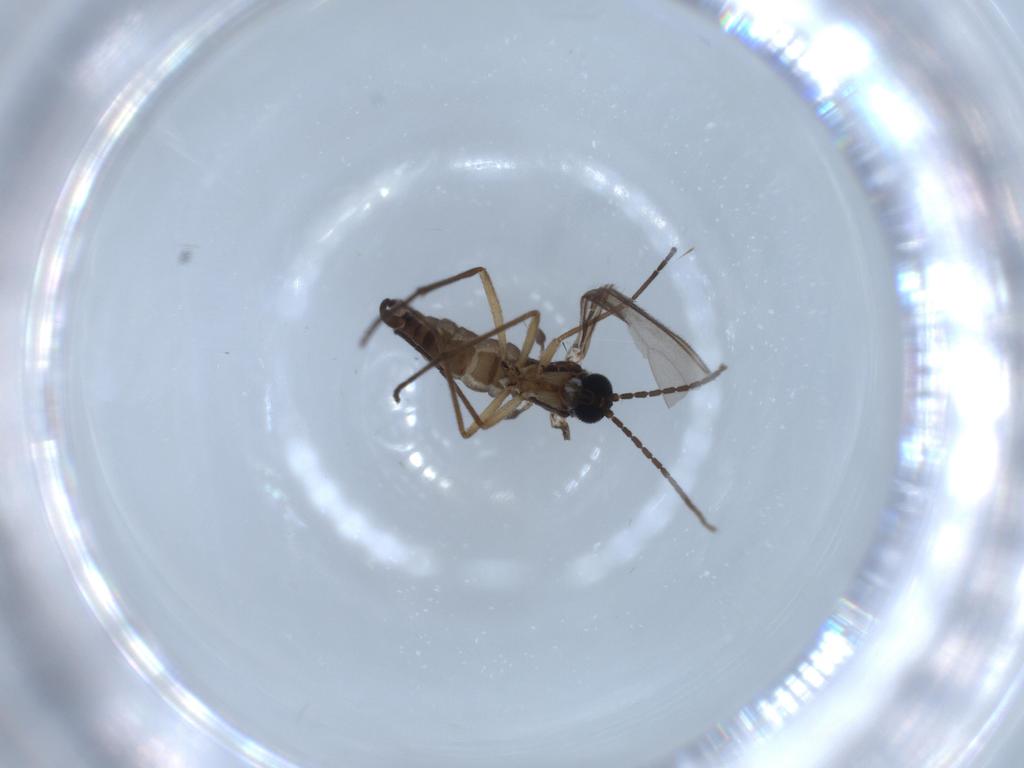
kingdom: Animalia
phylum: Arthropoda
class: Insecta
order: Diptera
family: Sciaridae
